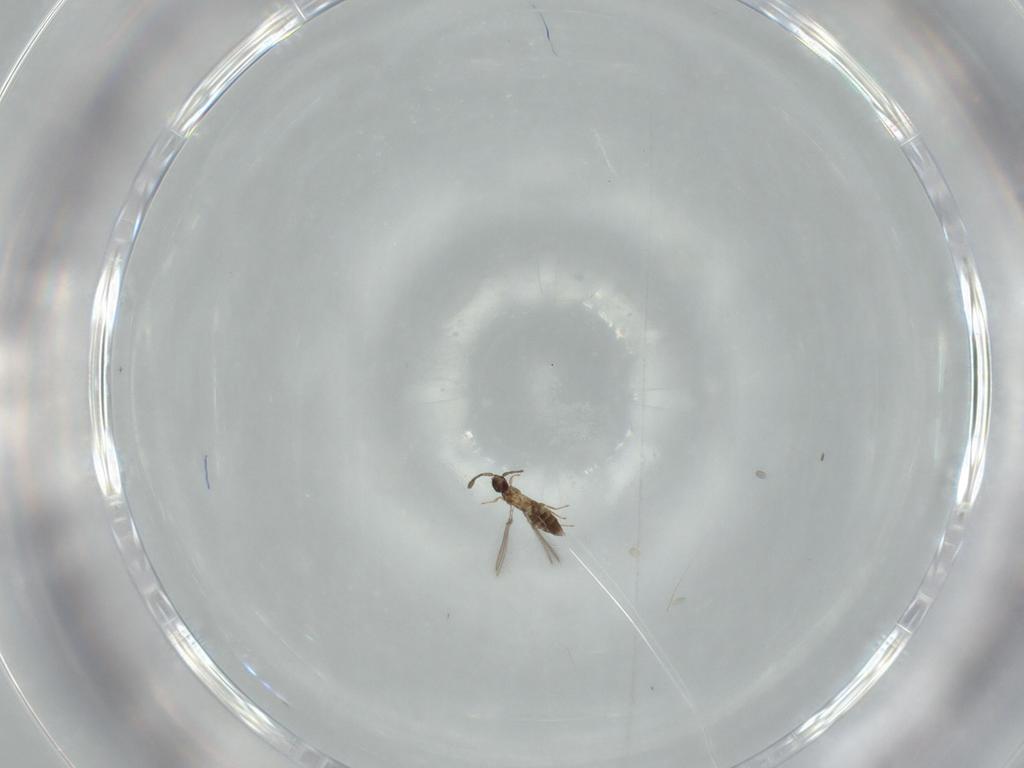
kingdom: Animalia
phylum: Arthropoda
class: Insecta
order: Hymenoptera
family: Mymaridae
